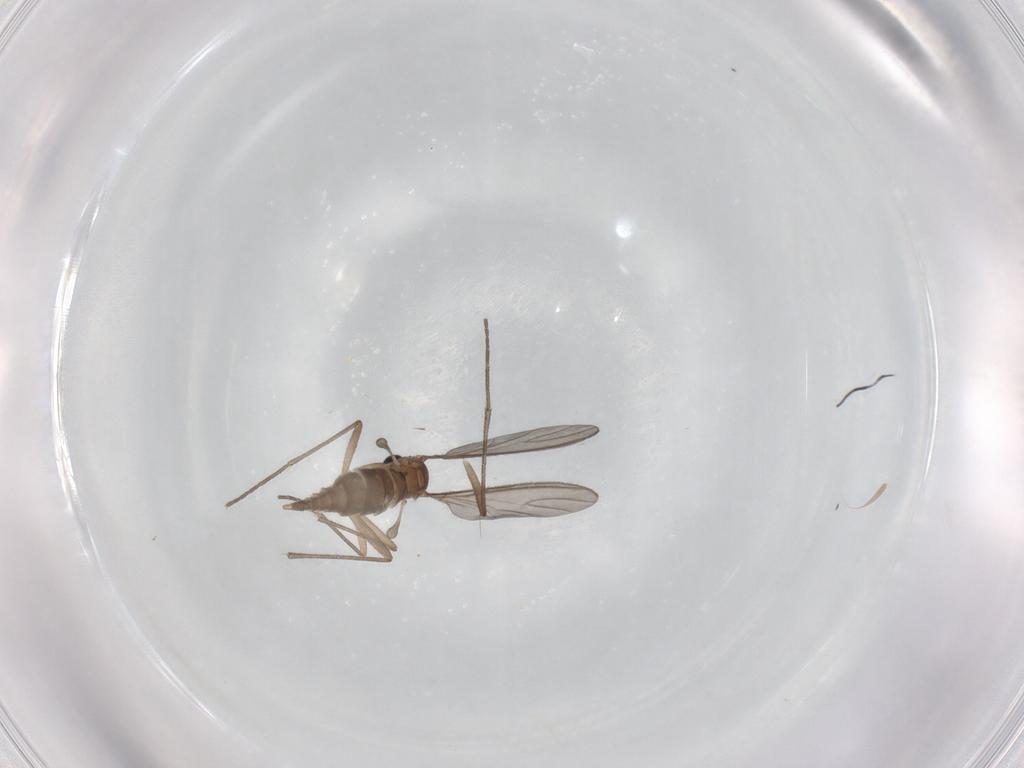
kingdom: Animalia
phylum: Arthropoda
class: Insecta
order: Diptera
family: Sciaridae
